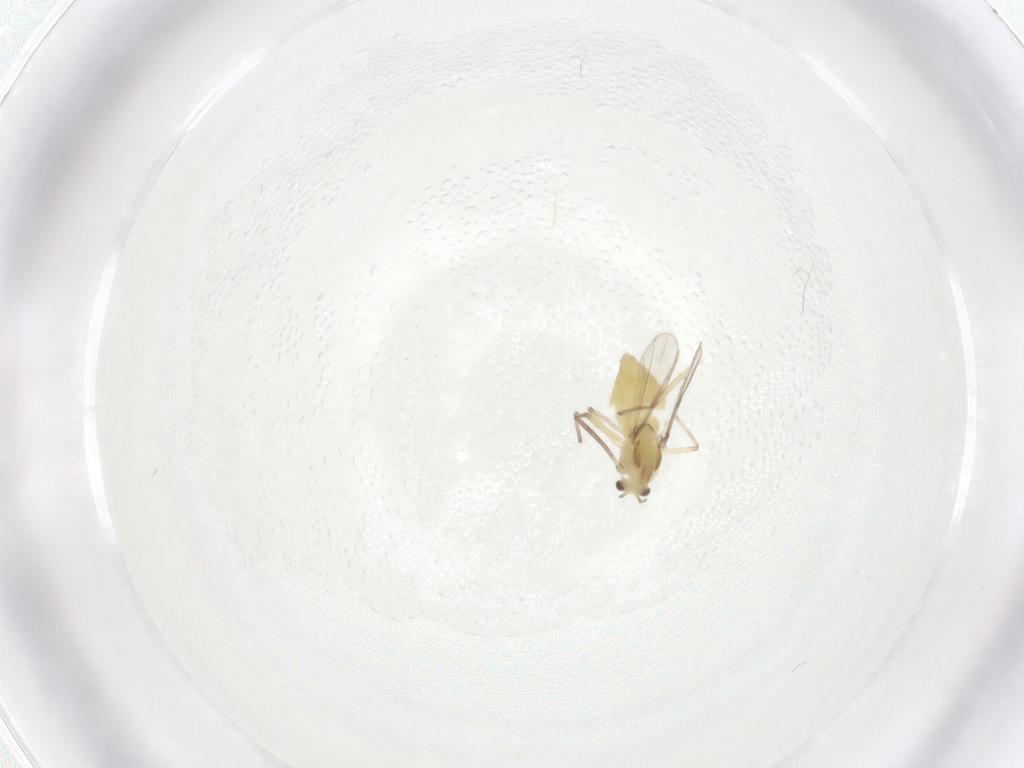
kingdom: Animalia
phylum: Arthropoda
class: Insecta
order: Diptera
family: Chironomidae
